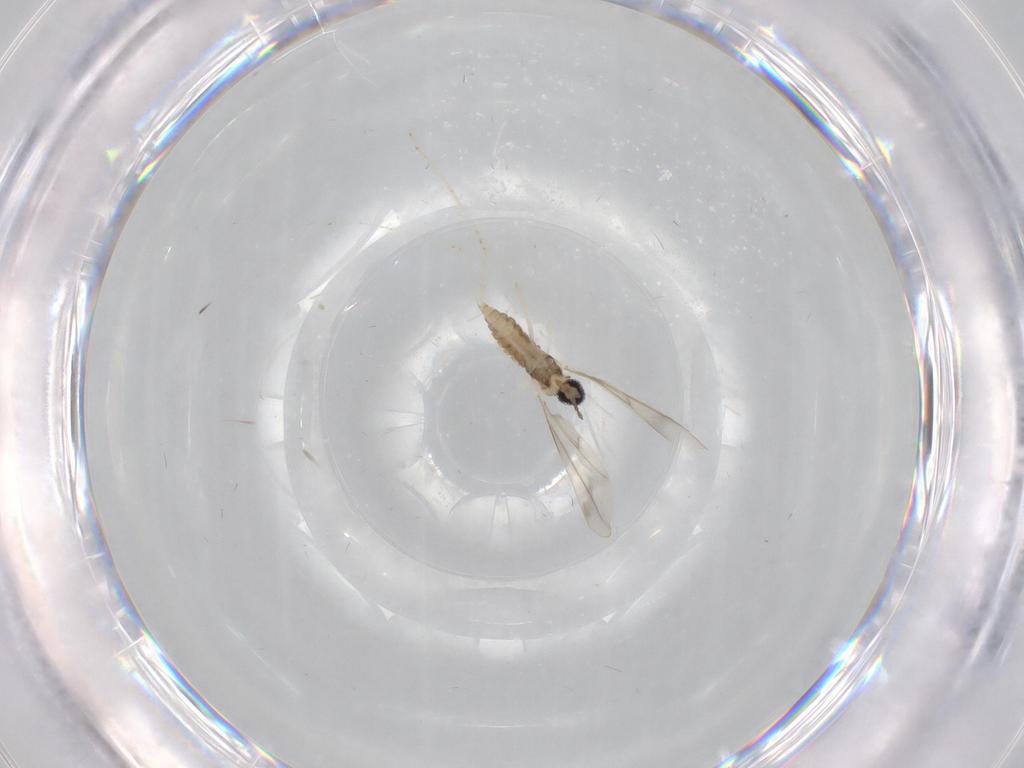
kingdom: Animalia
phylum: Arthropoda
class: Insecta
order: Diptera
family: Cecidomyiidae
